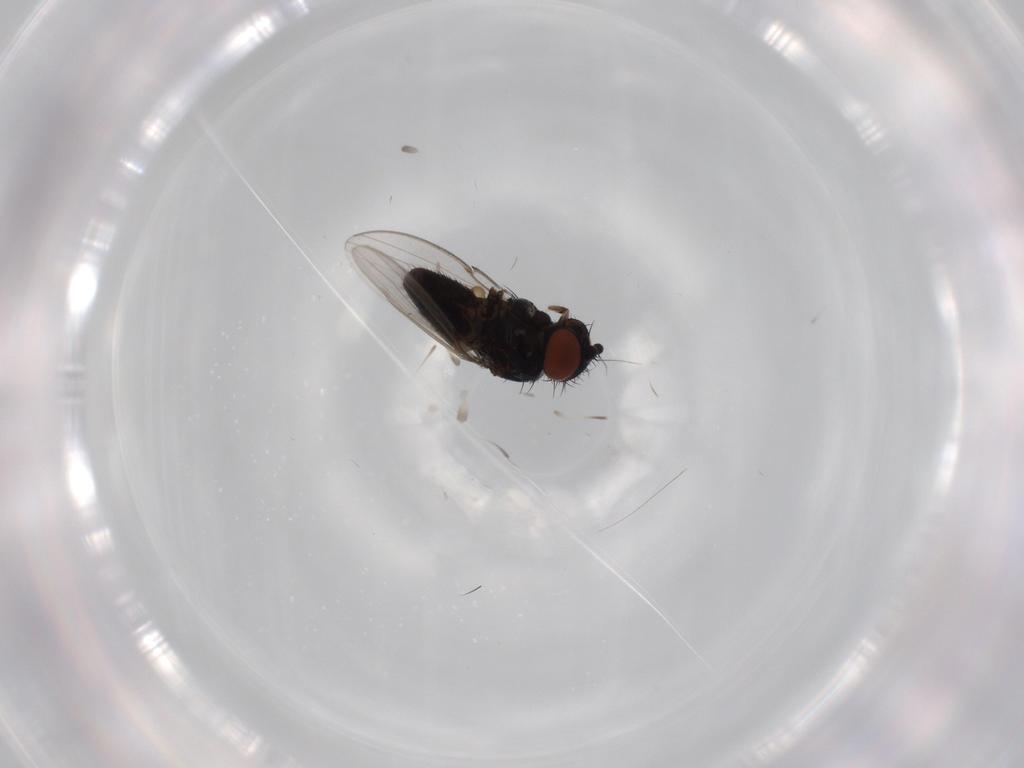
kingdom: Animalia
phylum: Arthropoda
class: Insecta
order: Diptera
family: Milichiidae
